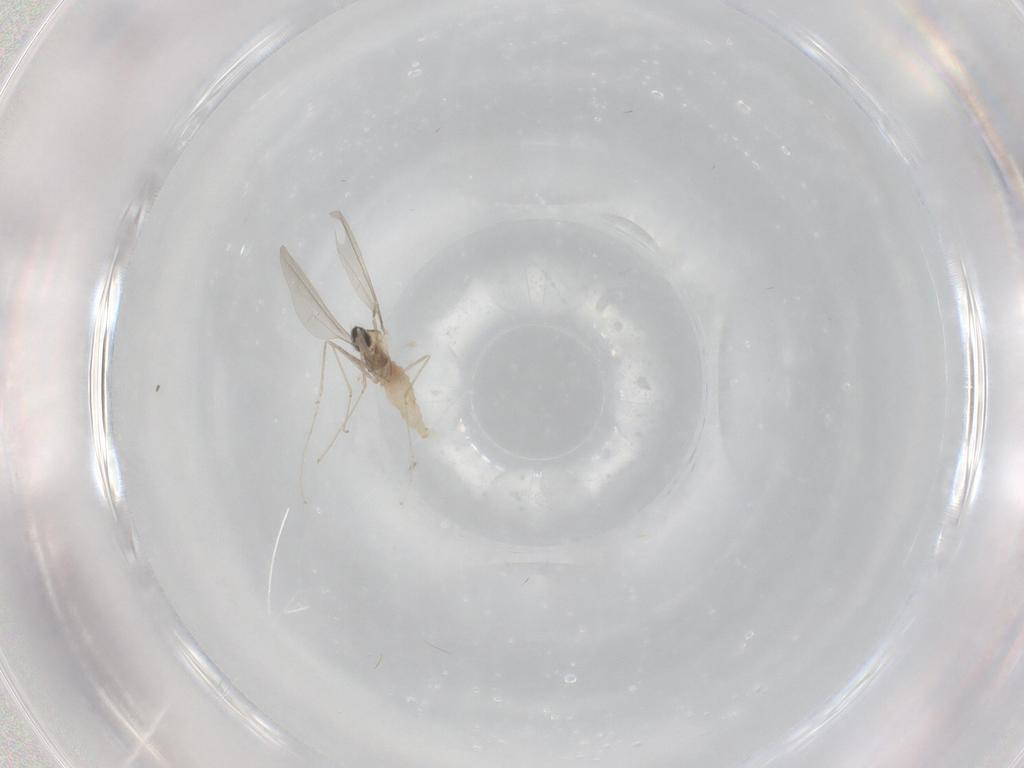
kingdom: Animalia
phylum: Arthropoda
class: Insecta
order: Diptera
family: Cecidomyiidae
